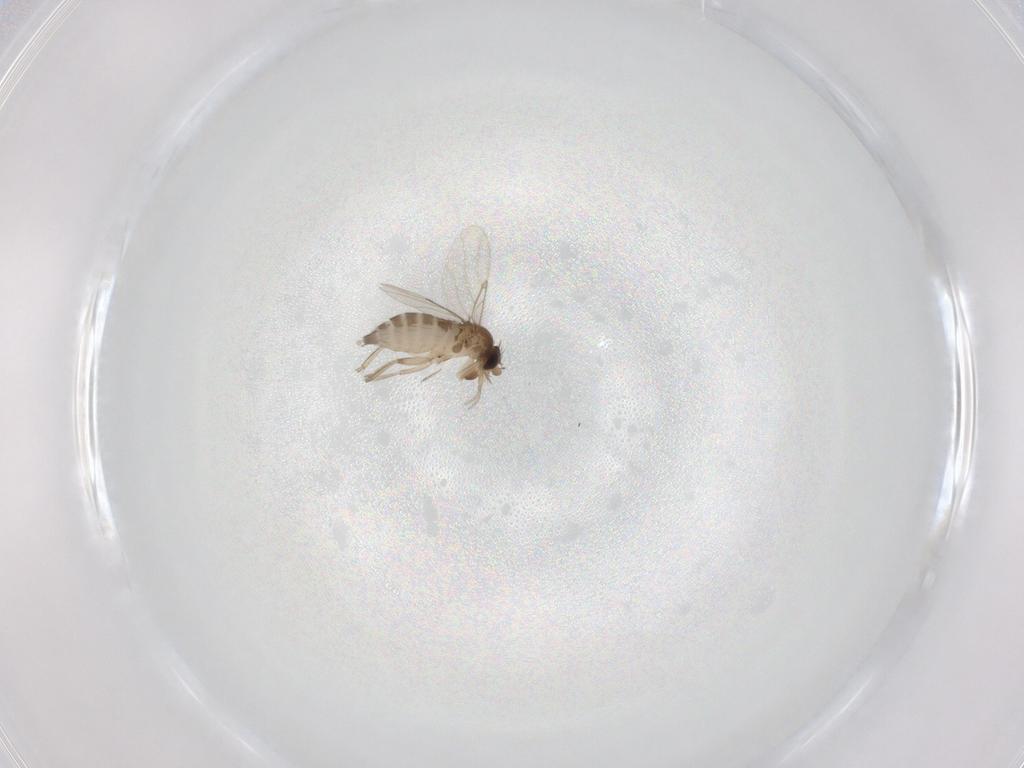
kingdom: Animalia
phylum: Arthropoda
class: Insecta
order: Diptera
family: Phoridae
